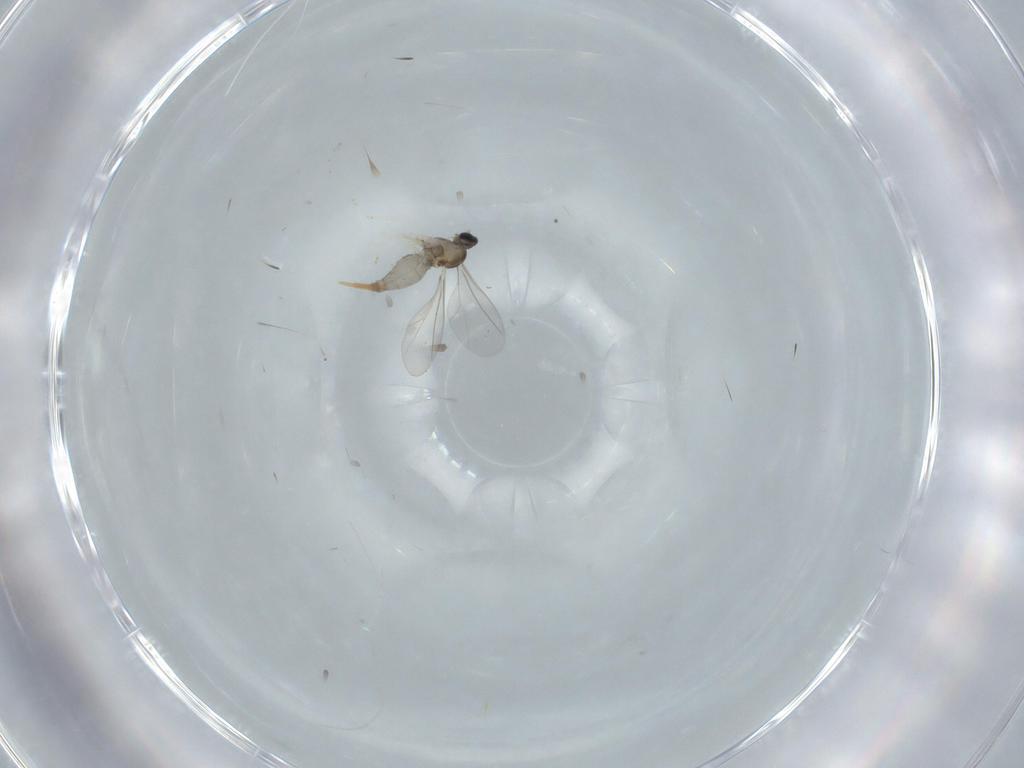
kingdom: Animalia
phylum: Arthropoda
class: Insecta
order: Diptera
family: Cecidomyiidae
